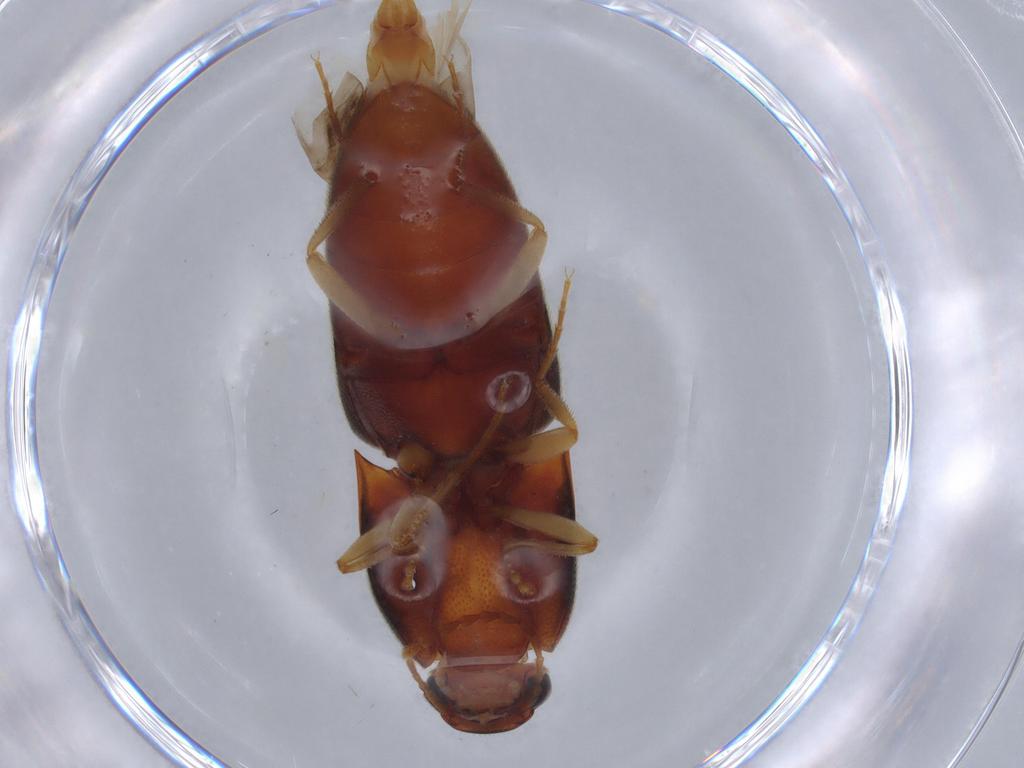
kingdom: Animalia
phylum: Arthropoda
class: Insecta
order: Coleoptera
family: Elateridae
